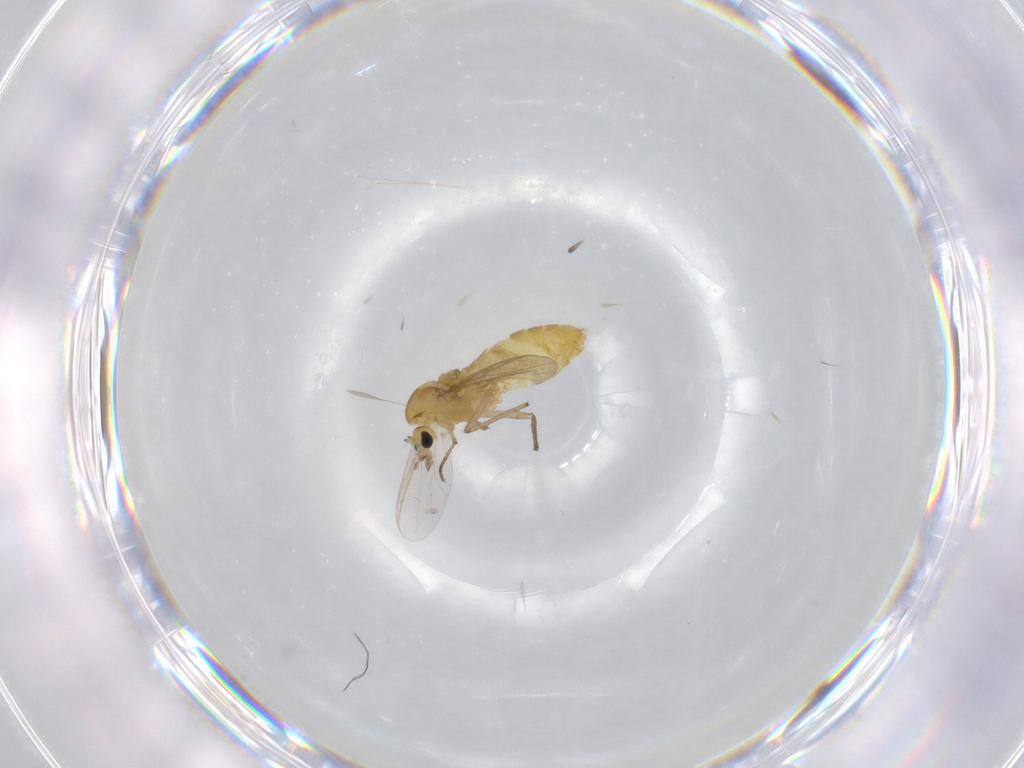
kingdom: Animalia
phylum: Arthropoda
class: Insecta
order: Diptera
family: Chironomidae
